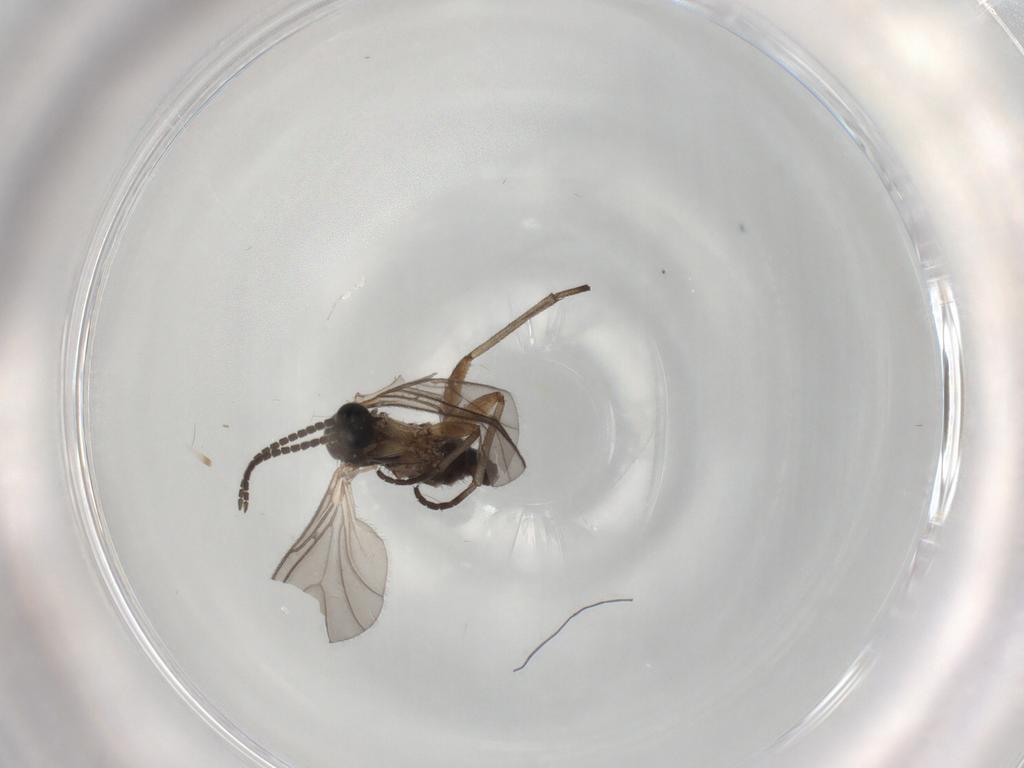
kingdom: Animalia
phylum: Arthropoda
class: Insecta
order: Diptera
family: Sciaridae
